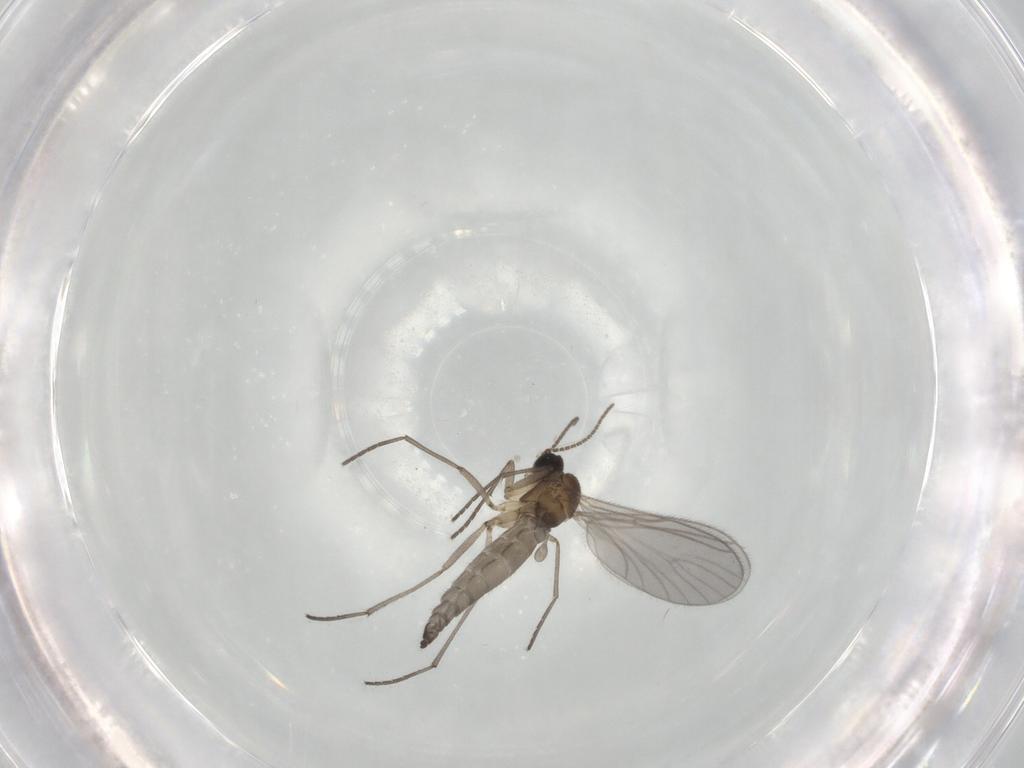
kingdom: Animalia
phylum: Arthropoda
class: Insecta
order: Diptera
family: Sciaridae
